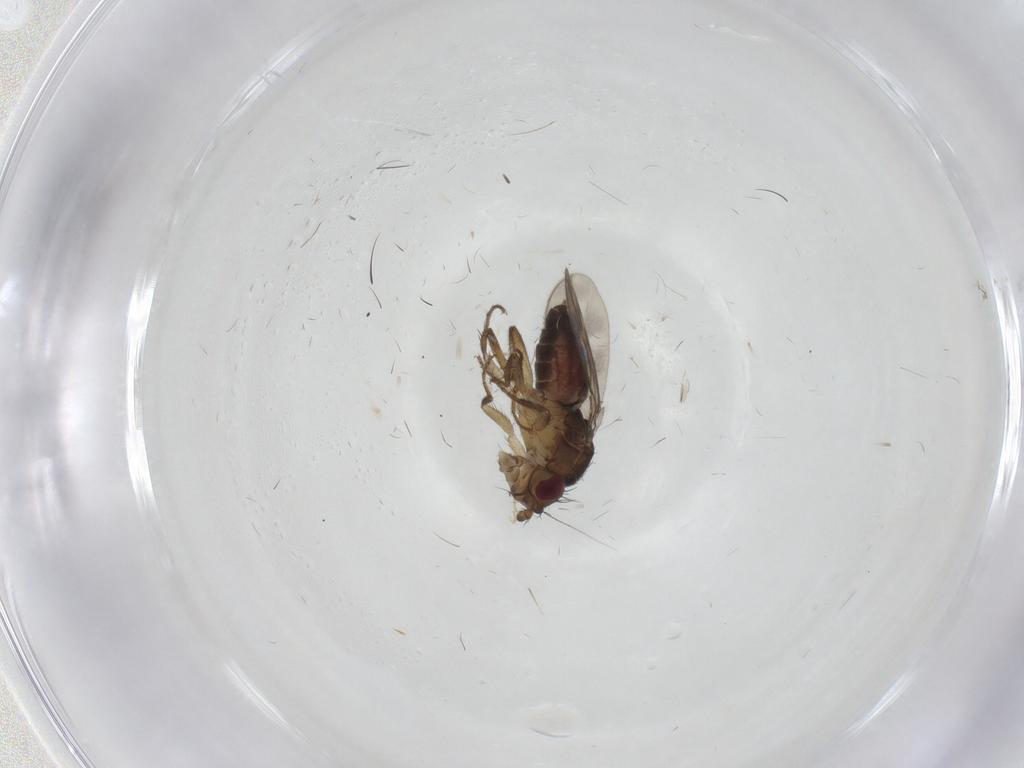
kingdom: Animalia
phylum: Arthropoda
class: Insecta
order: Diptera
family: Sphaeroceridae
